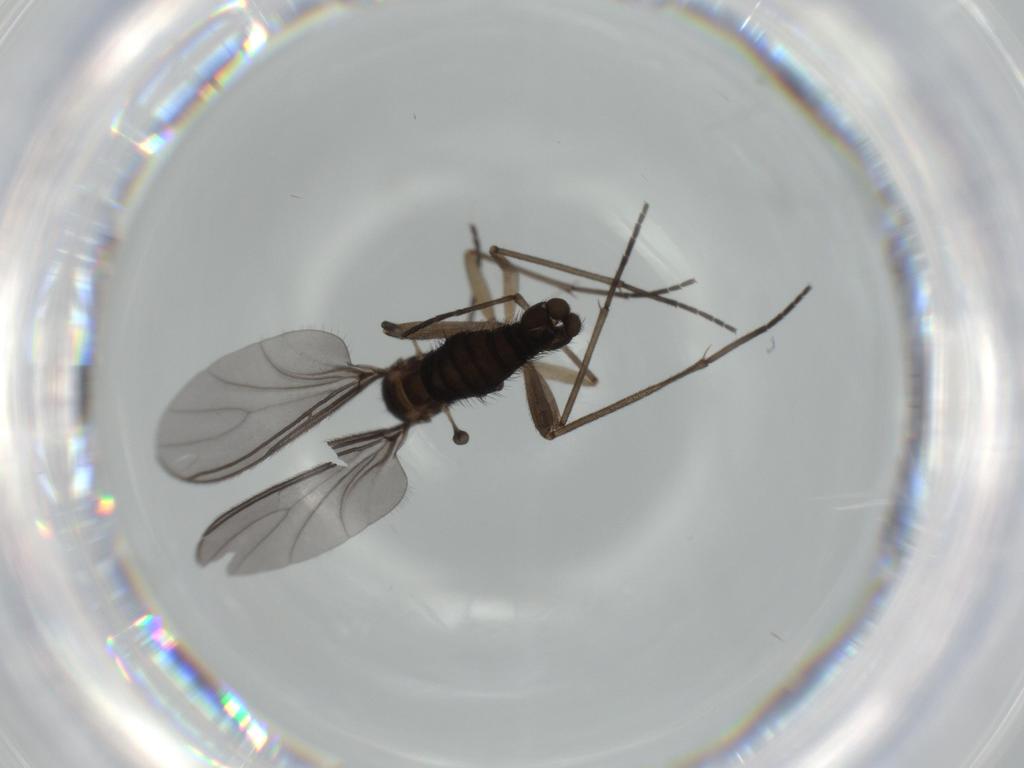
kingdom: Animalia
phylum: Arthropoda
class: Insecta
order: Diptera
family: Sciaridae
